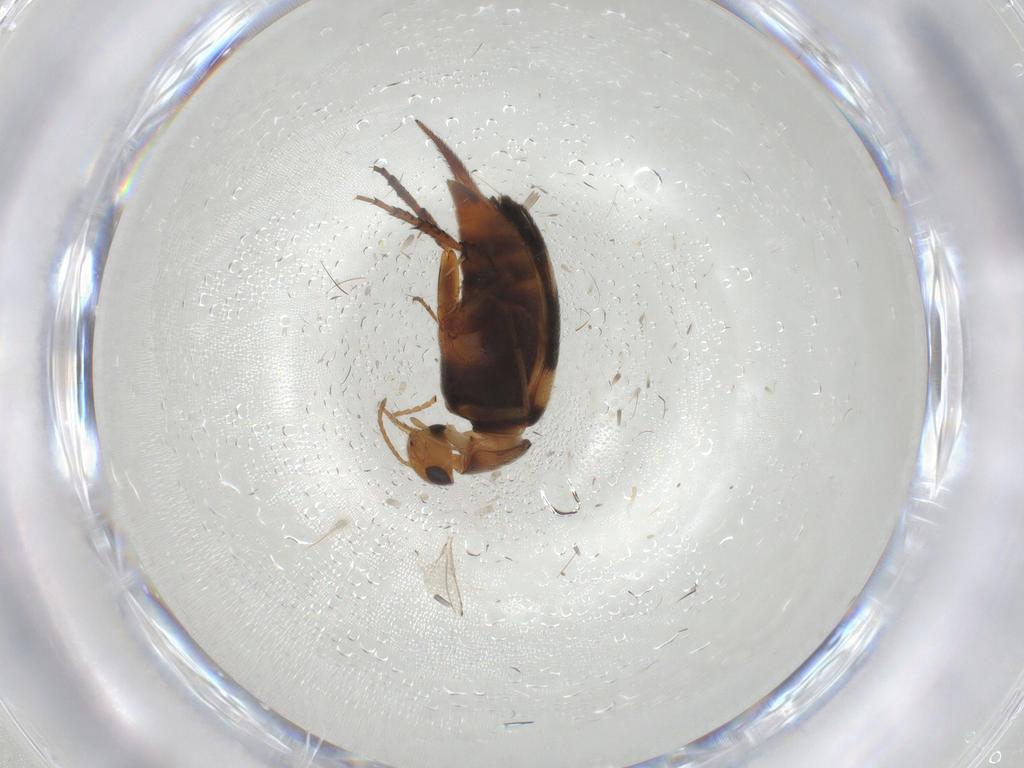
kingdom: Animalia
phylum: Arthropoda
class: Insecta
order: Coleoptera
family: Mordellidae
